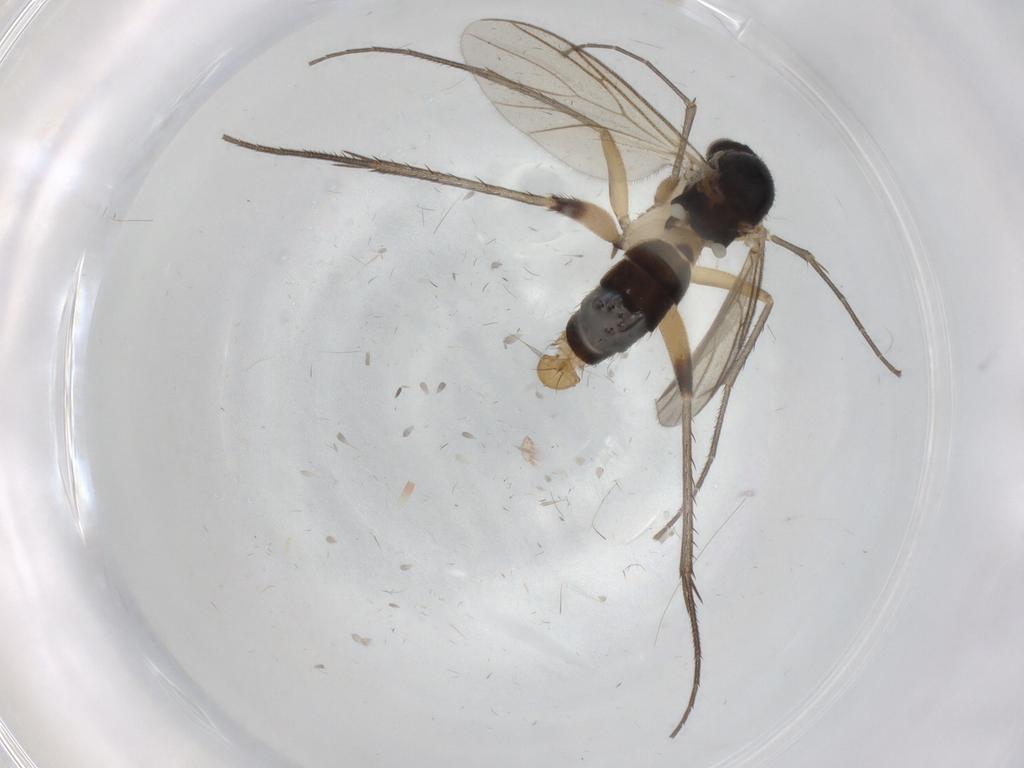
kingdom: Animalia
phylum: Arthropoda
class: Insecta
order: Diptera
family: Mycetophilidae
